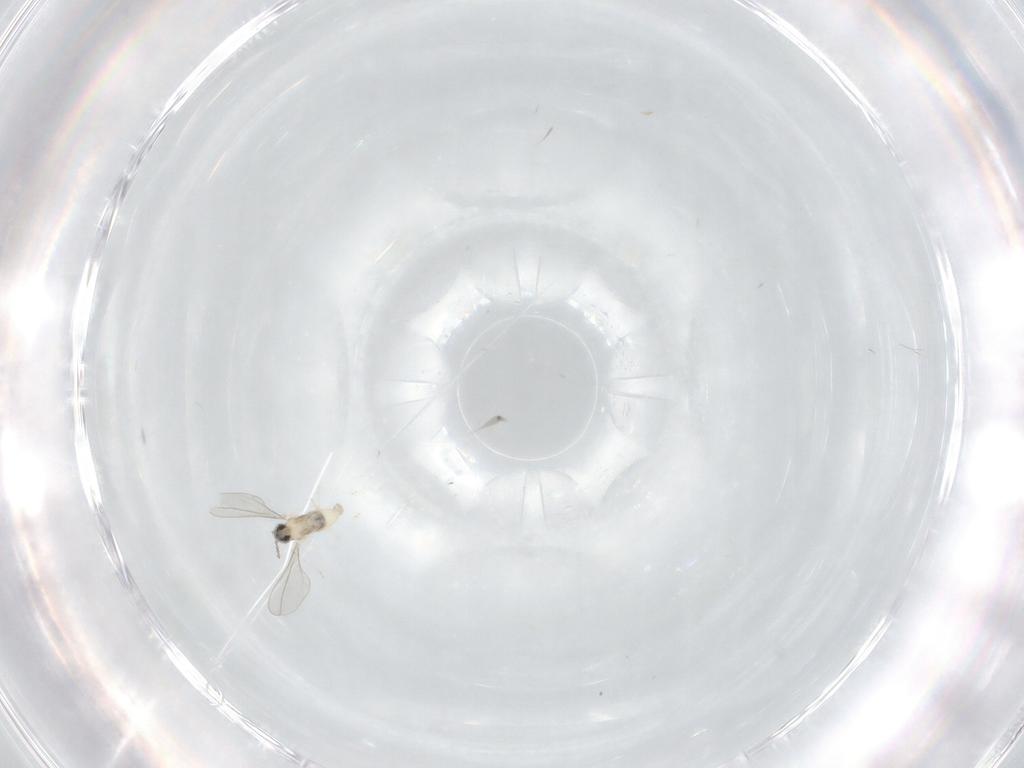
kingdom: Animalia
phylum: Arthropoda
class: Insecta
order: Diptera
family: Cecidomyiidae
